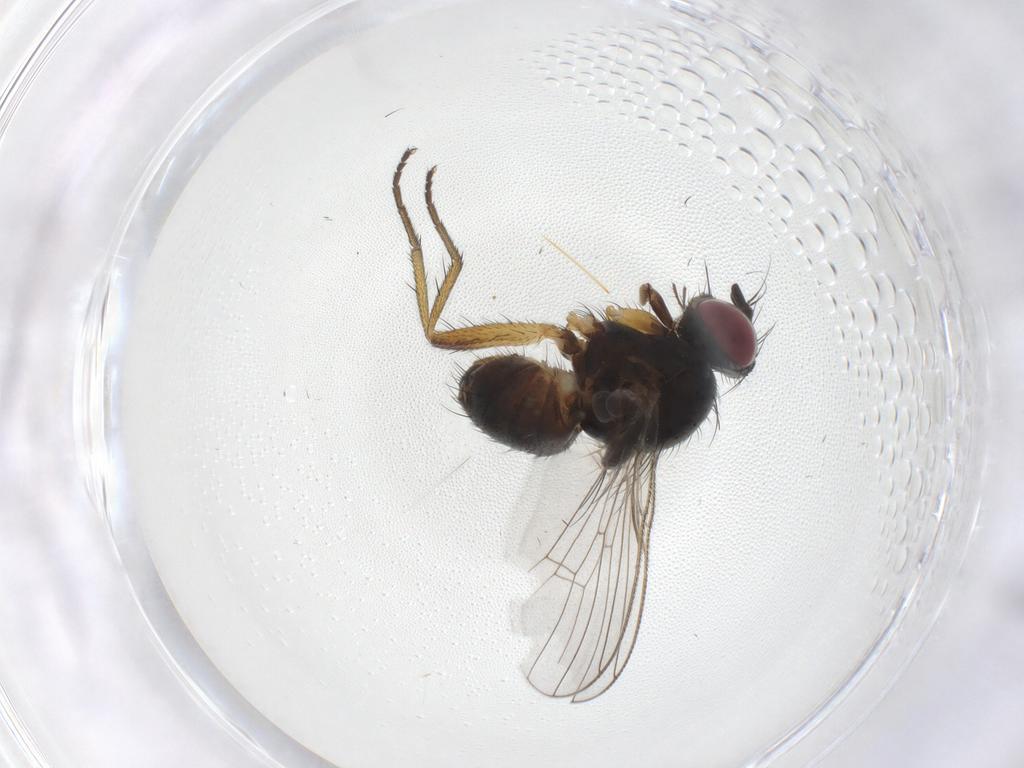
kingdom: Animalia
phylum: Arthropoda
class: Insecta
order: Diptera
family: Muscidae
